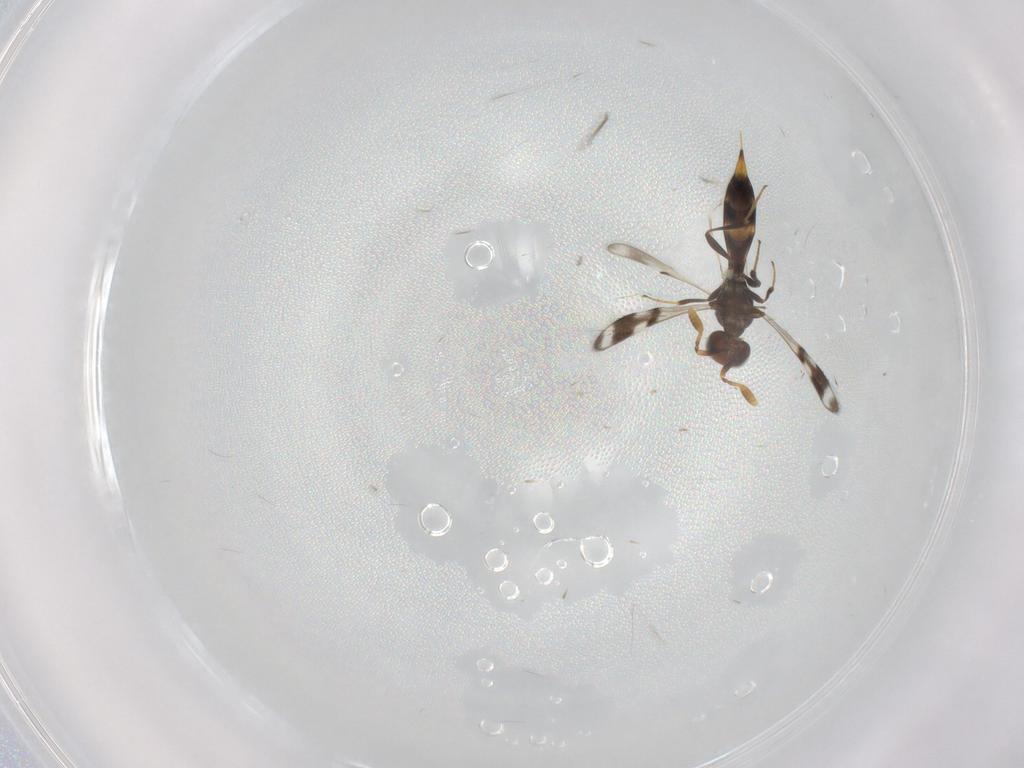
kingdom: Animalia
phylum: Arthropoda
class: Insecta
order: Hymenoptera
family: Scelionidae
